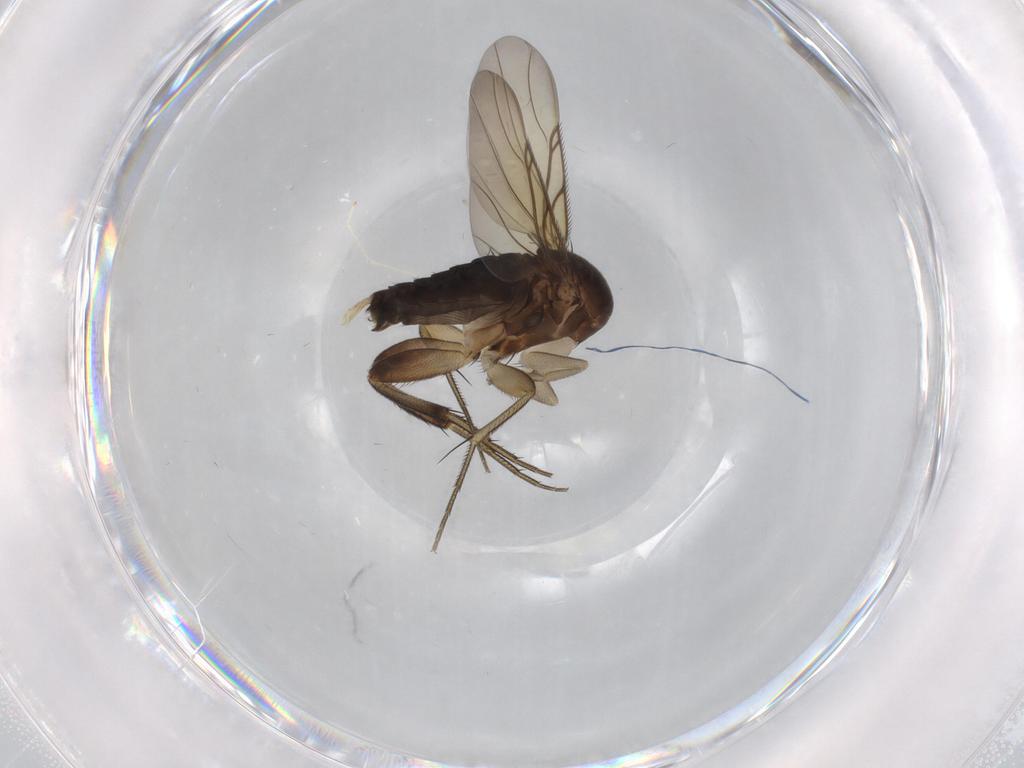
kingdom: Animalia
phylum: Arthropoda
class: Insecta
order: Diptera
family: Phoridae
